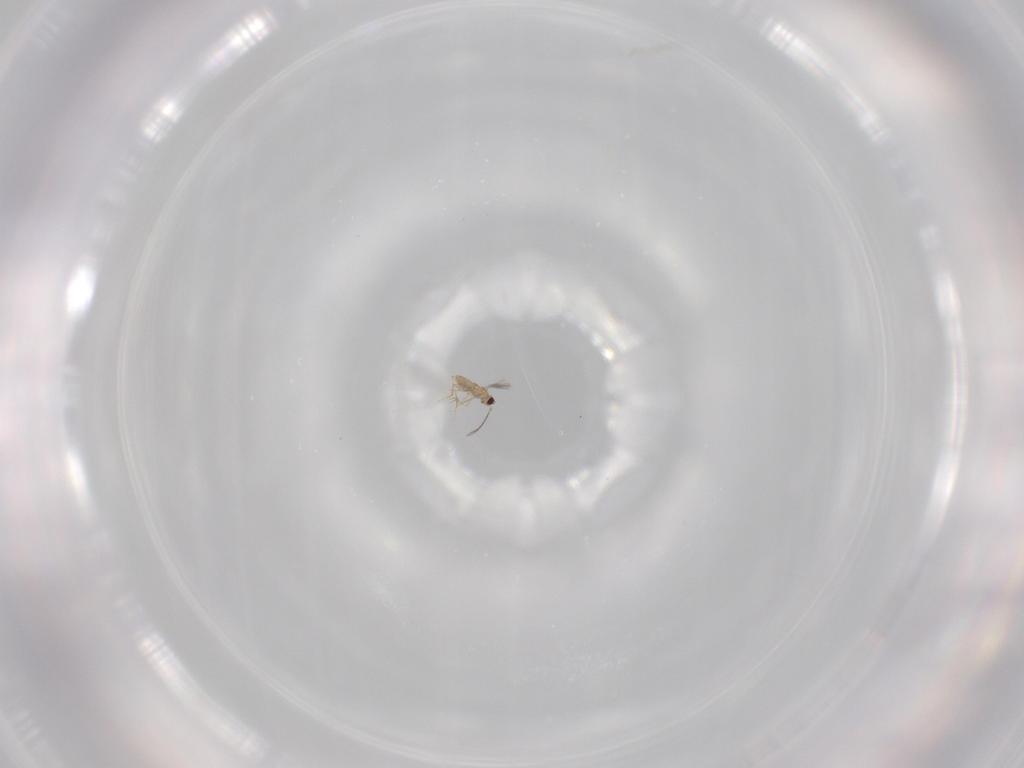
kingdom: Animalia
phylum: Arthropoda
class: Insecta
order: Hymenoptera
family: Mymaridae
